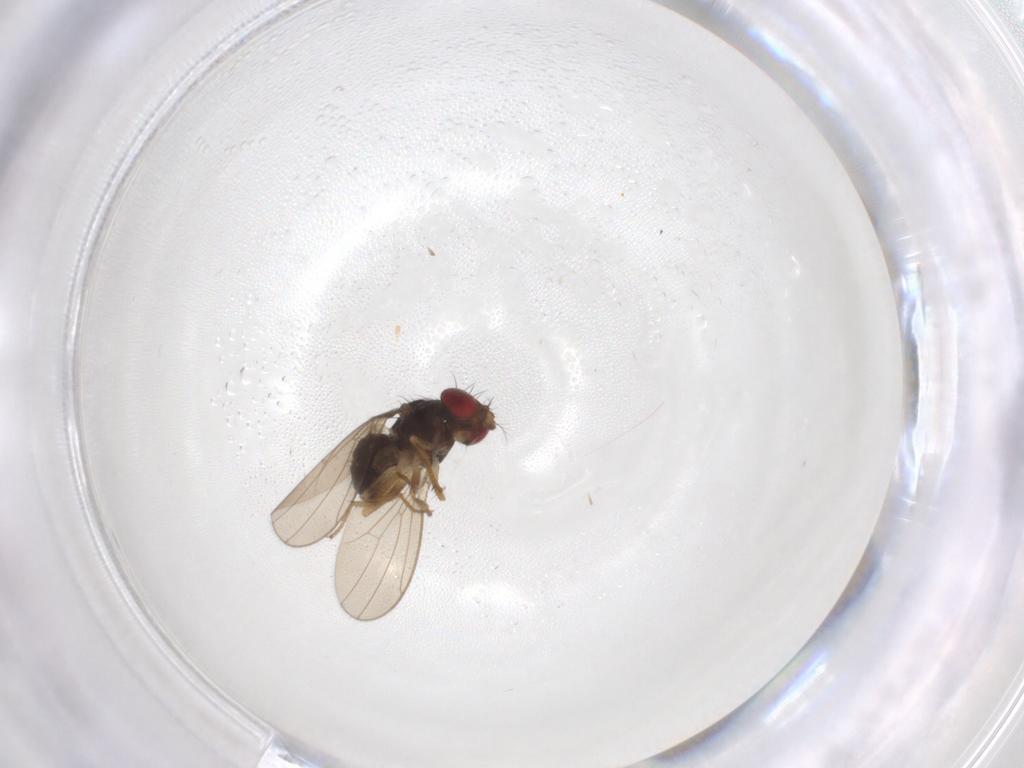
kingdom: Animalia
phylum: Arthropoda
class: Insecta
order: Diptera
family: Drosophilidae
